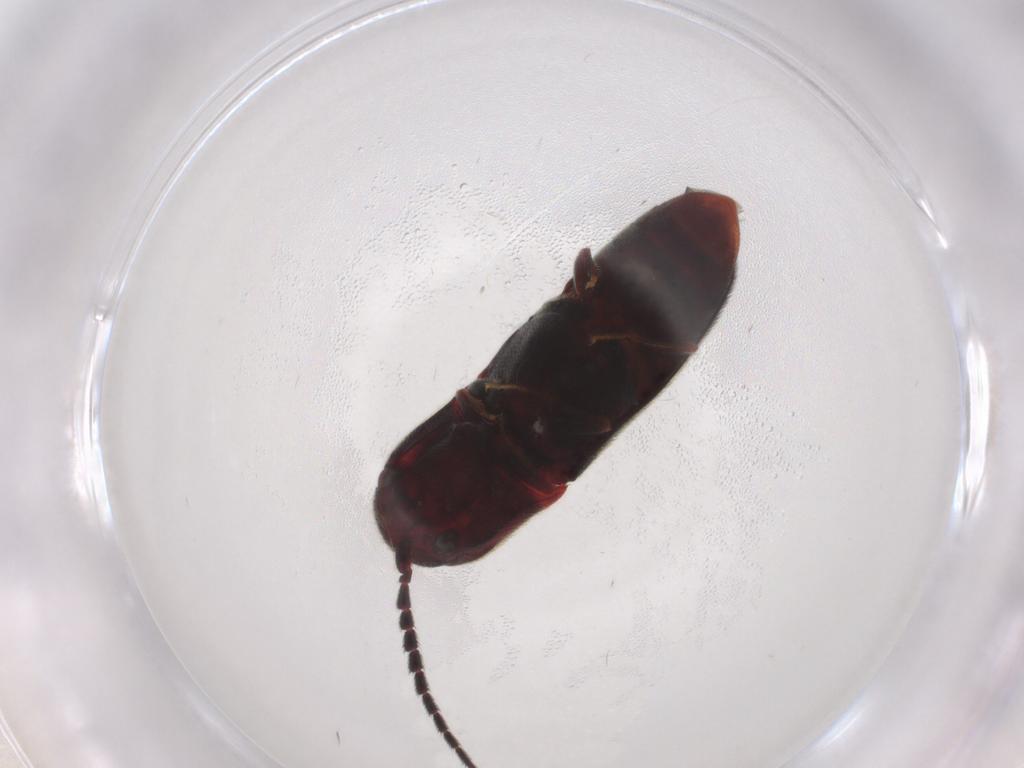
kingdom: Animalia
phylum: Arthropoda
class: Insecta
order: Coleoptera
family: Eucnemidae
